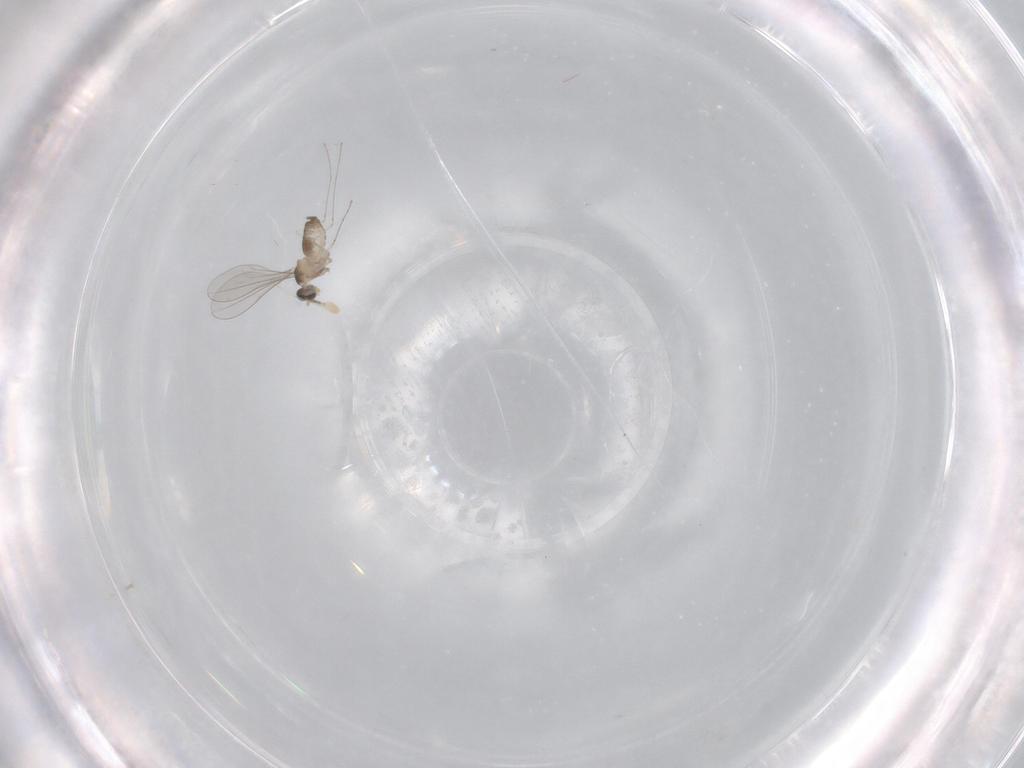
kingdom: Animalia
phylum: Arthropoda
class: Insecta
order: Diptera
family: Cecidomyiidae
